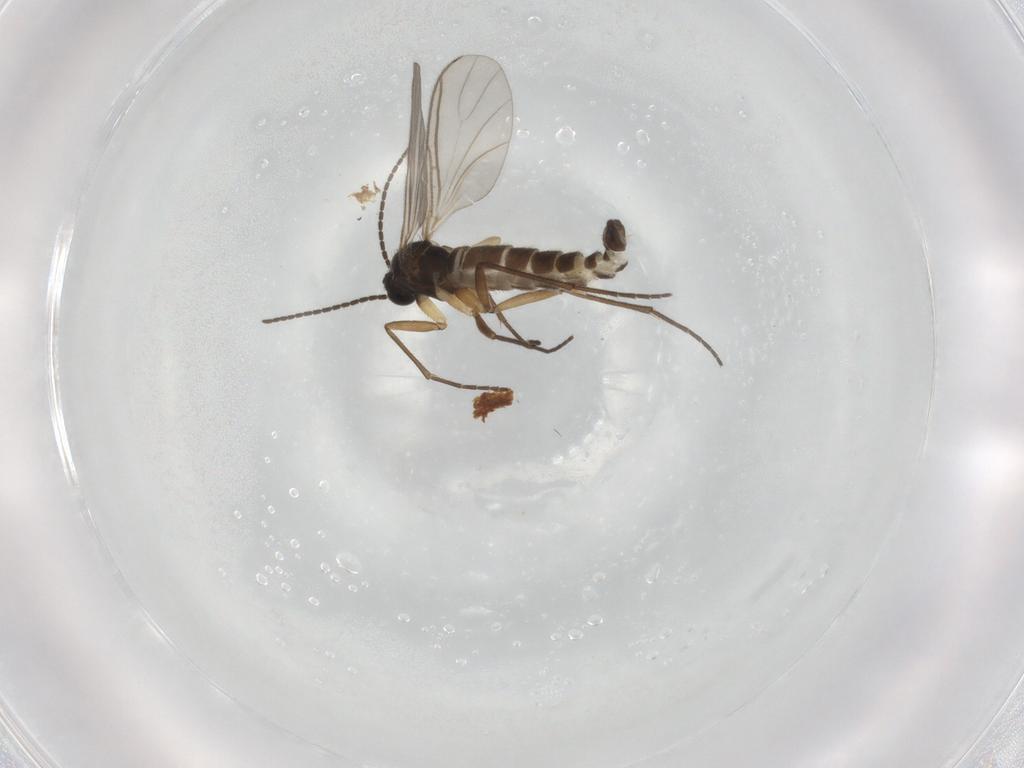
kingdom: Animalia
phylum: Arthropoda
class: Insecta
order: Diptera
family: Sciaridae
